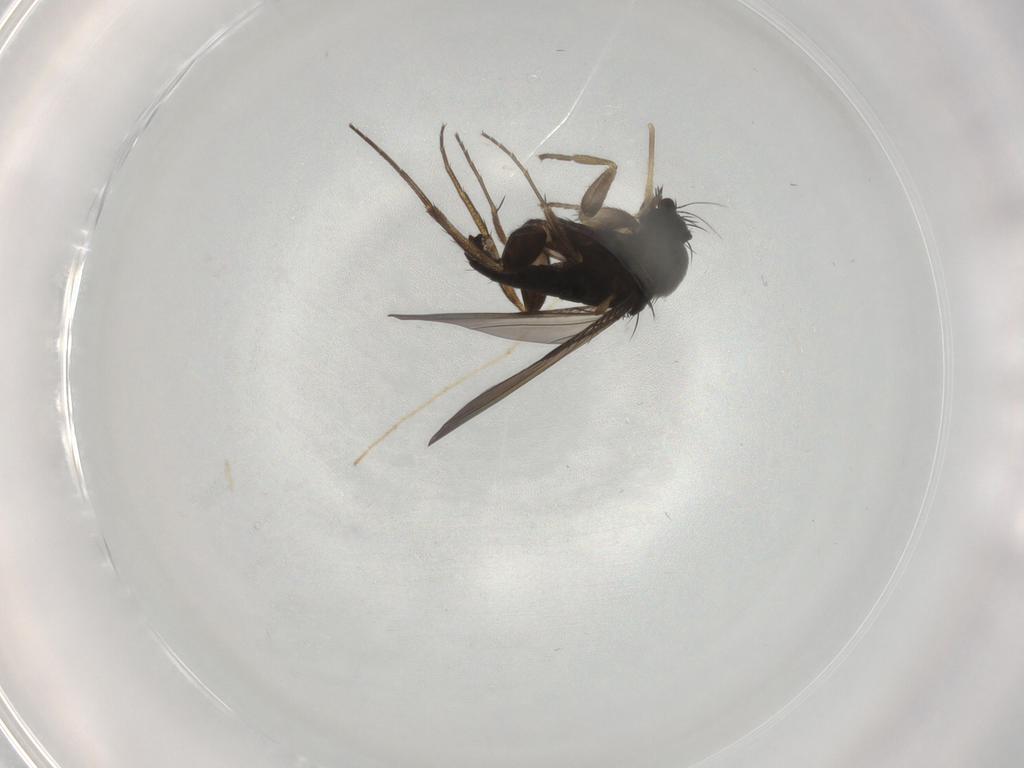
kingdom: Animalia
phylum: Arthropoda
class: Insecta
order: Diptera
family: Phoridae
